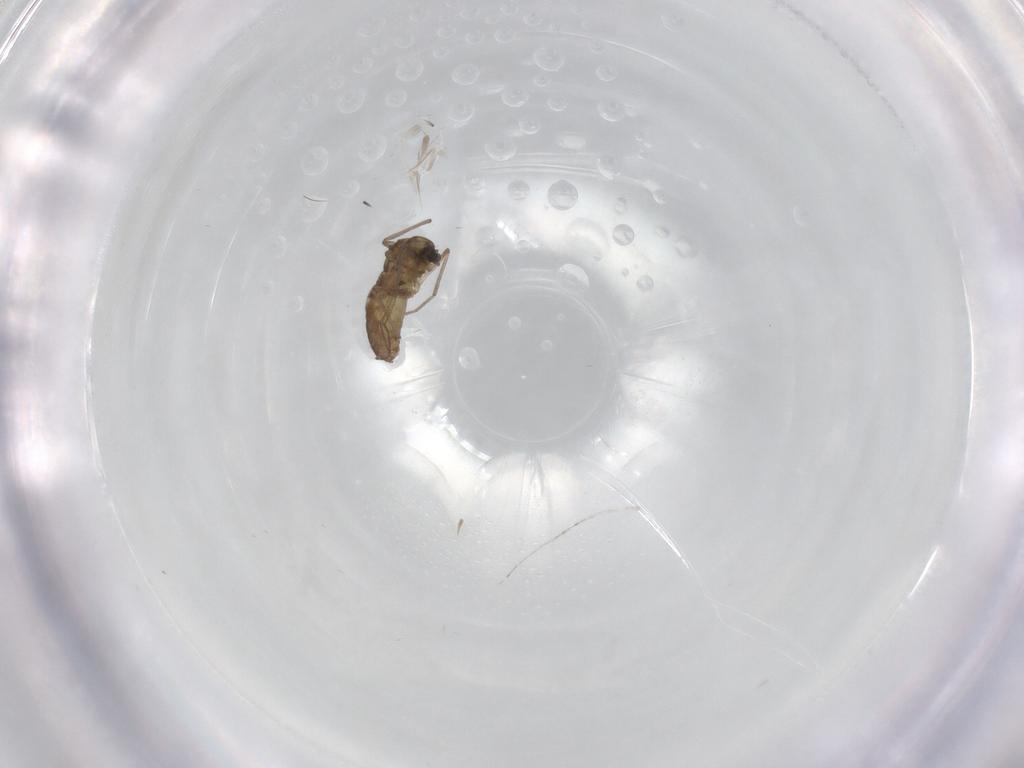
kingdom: Animalia
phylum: Arthropoda
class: Insecta
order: Diptera
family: Psychodidae
